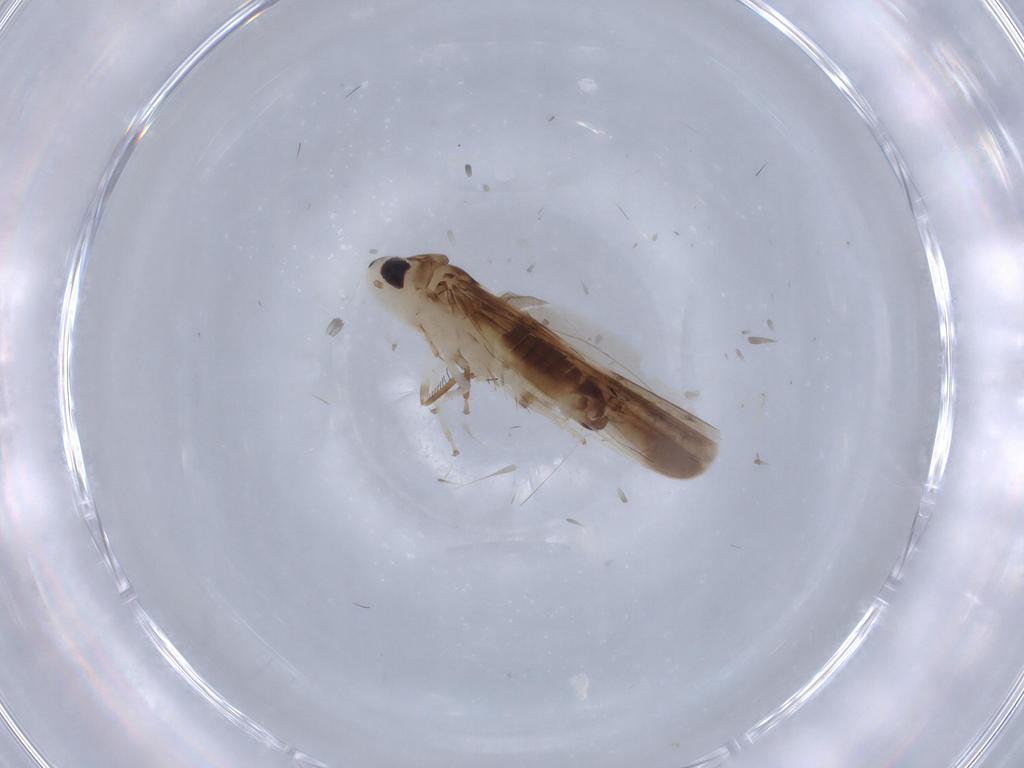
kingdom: Animalia
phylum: Arthropoda
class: Insecta
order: Hemiptera
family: Cicadellidae
